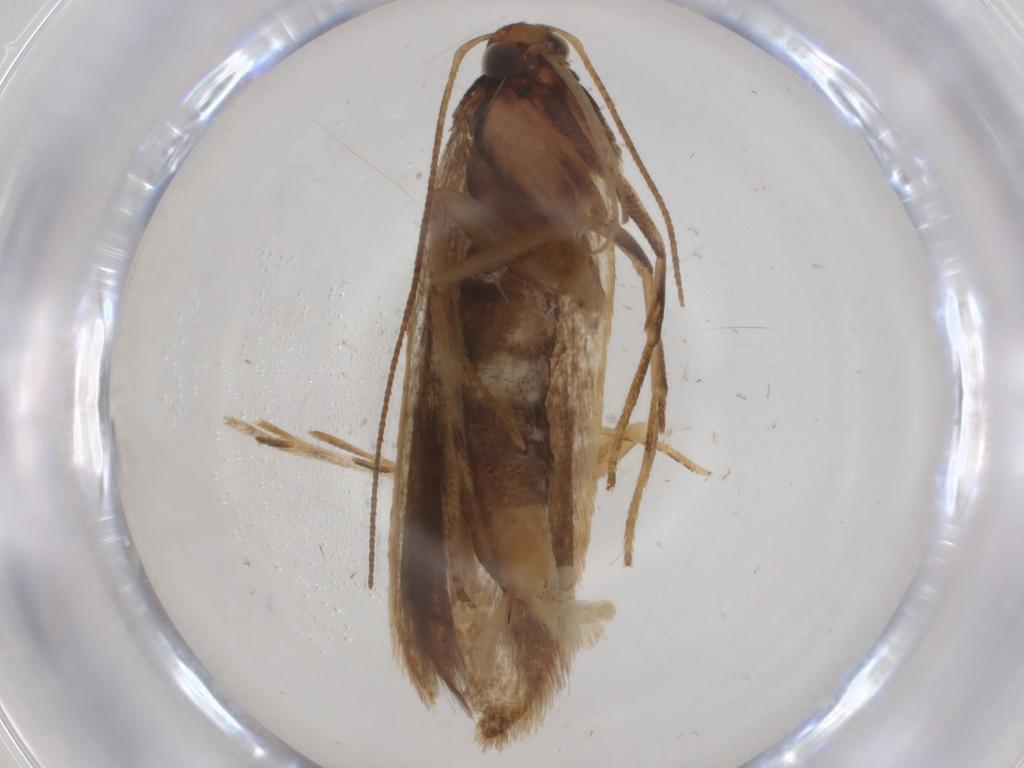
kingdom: Animalia
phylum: Arthropoda
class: Insecta
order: Lepidoptera
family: Gelechiidae
